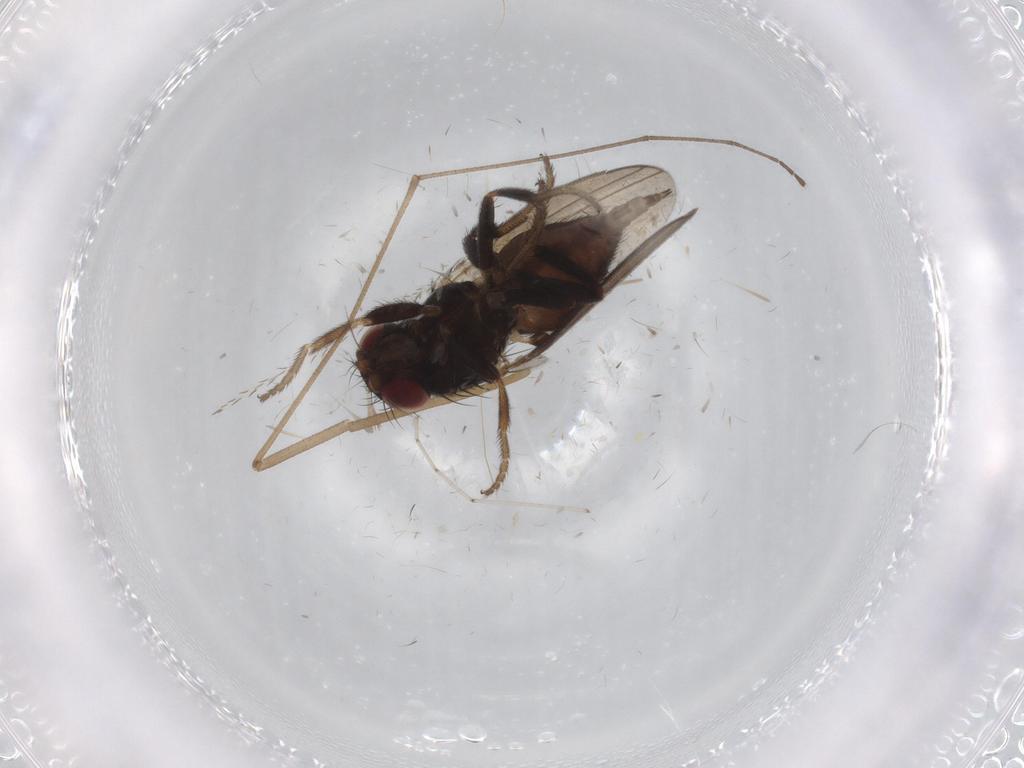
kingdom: Animalia
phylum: Arthropoda
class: Insecta
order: Diptera
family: Milichiidae
